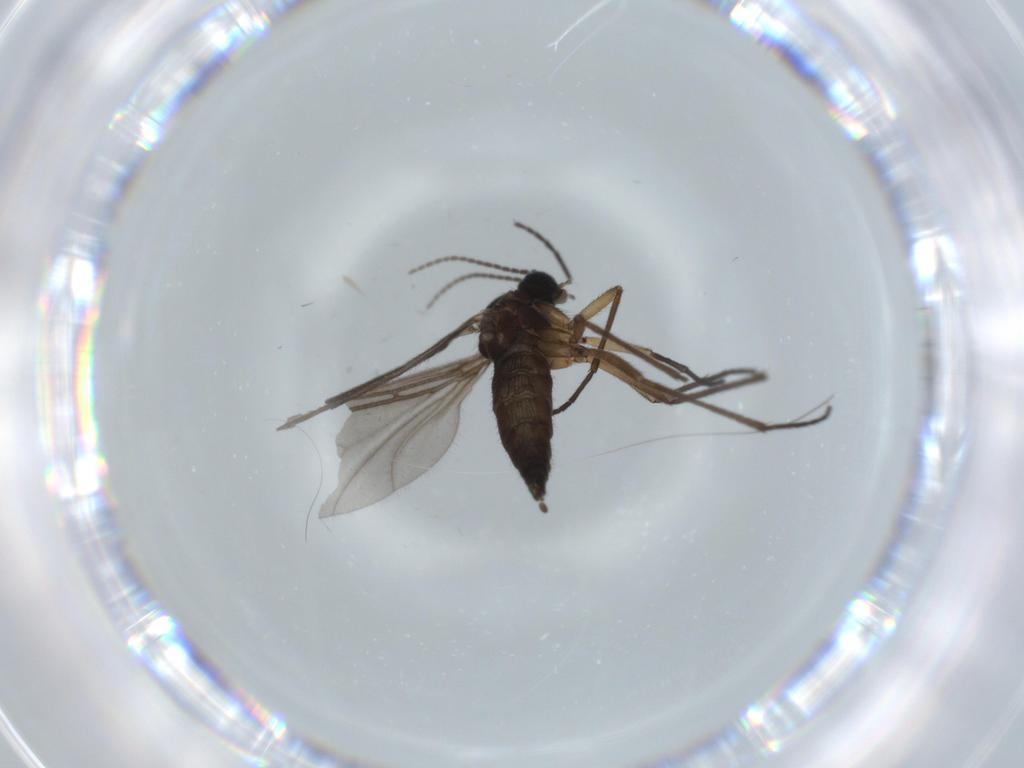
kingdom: Animalia
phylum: Arthropoda
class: Insecta
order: Diptera
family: Sciaridae
